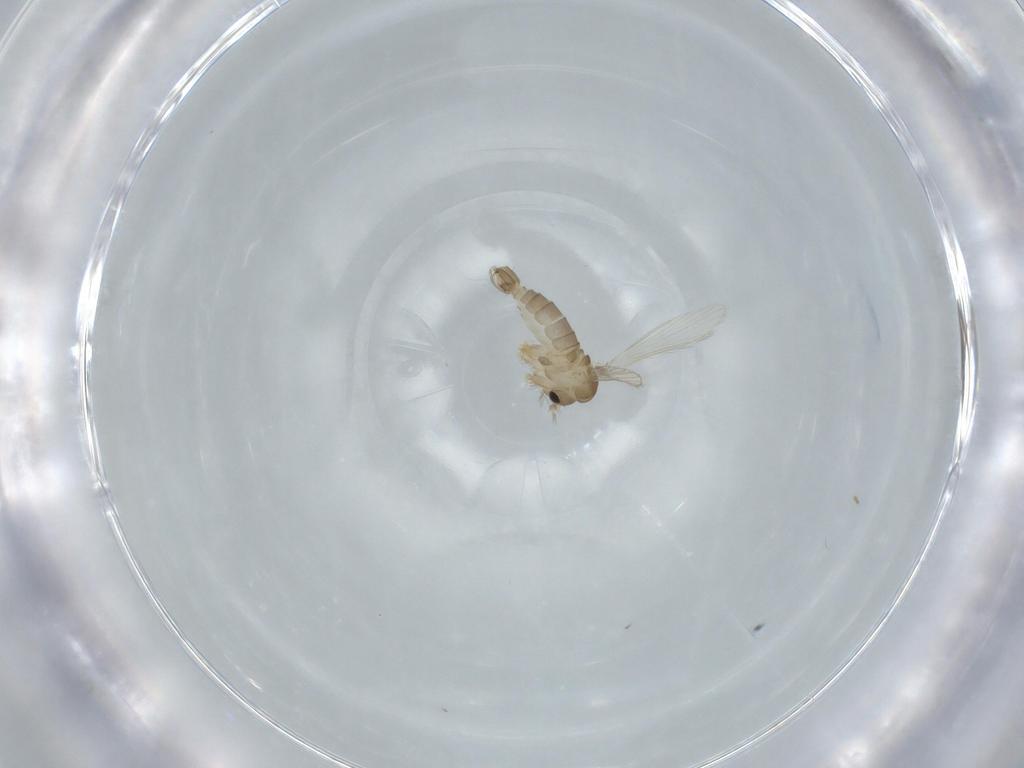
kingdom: Animalia
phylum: Arthropoda
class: Insecta
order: Diptera
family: Psychodidae
